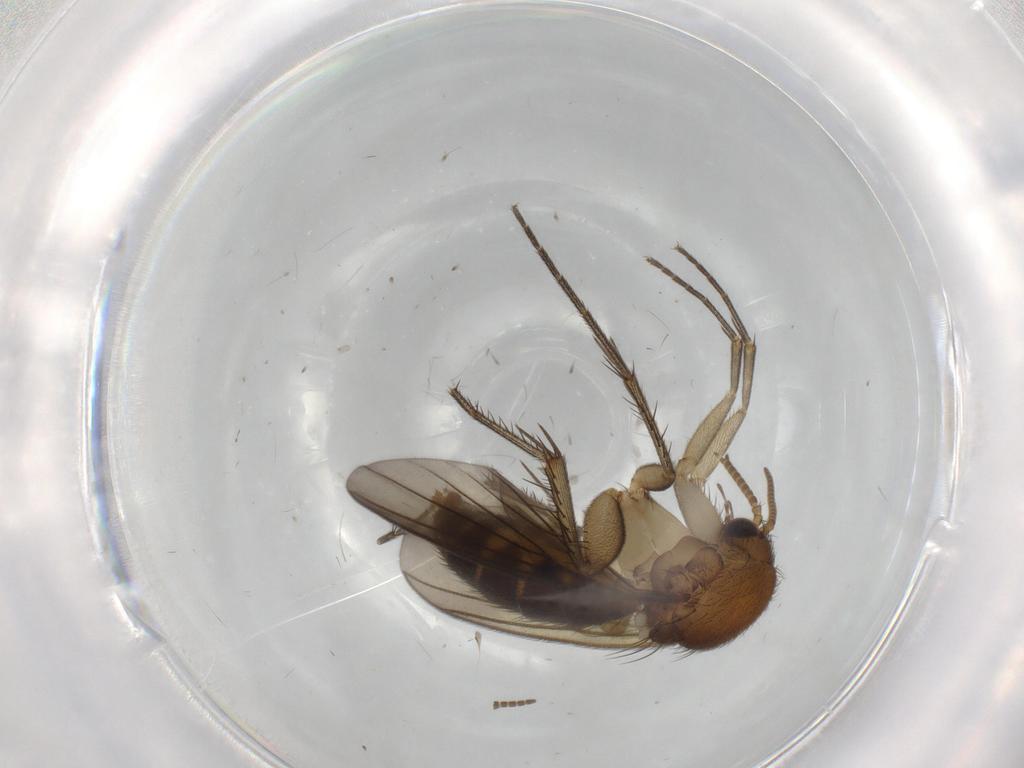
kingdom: Animalia
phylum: Arthropoda
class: Insecta
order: Diptera
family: Mycetophilidae
